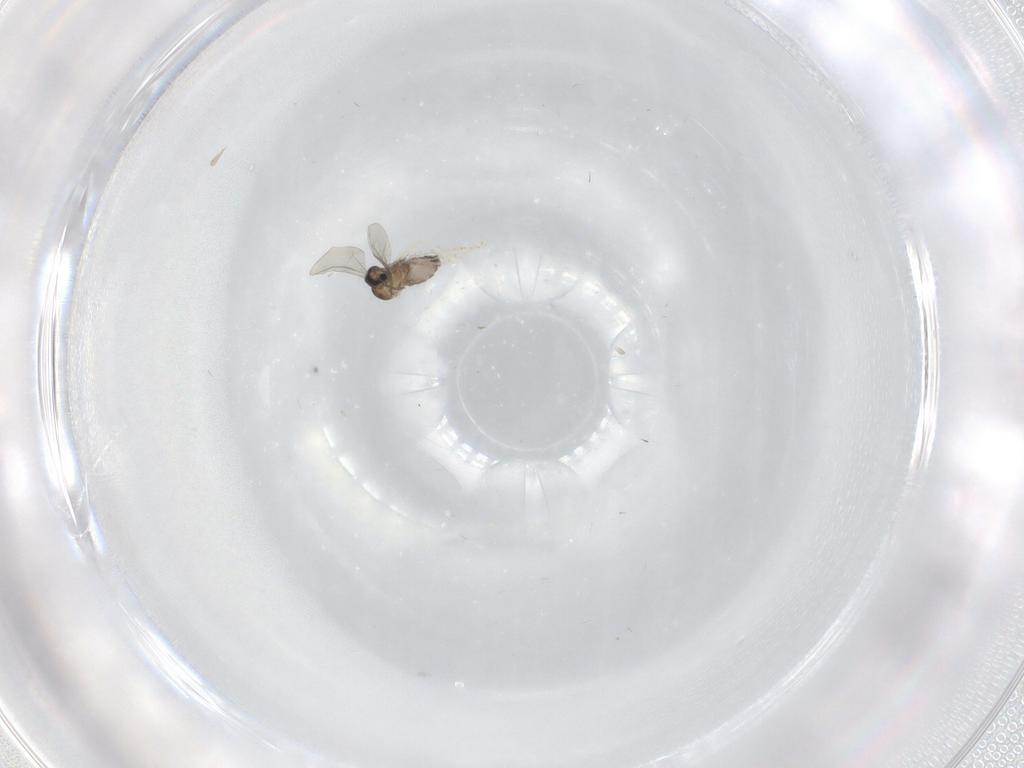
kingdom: Animalia
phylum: Arthropoda
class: Insecta
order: Diptera
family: Cecidomyiidae
